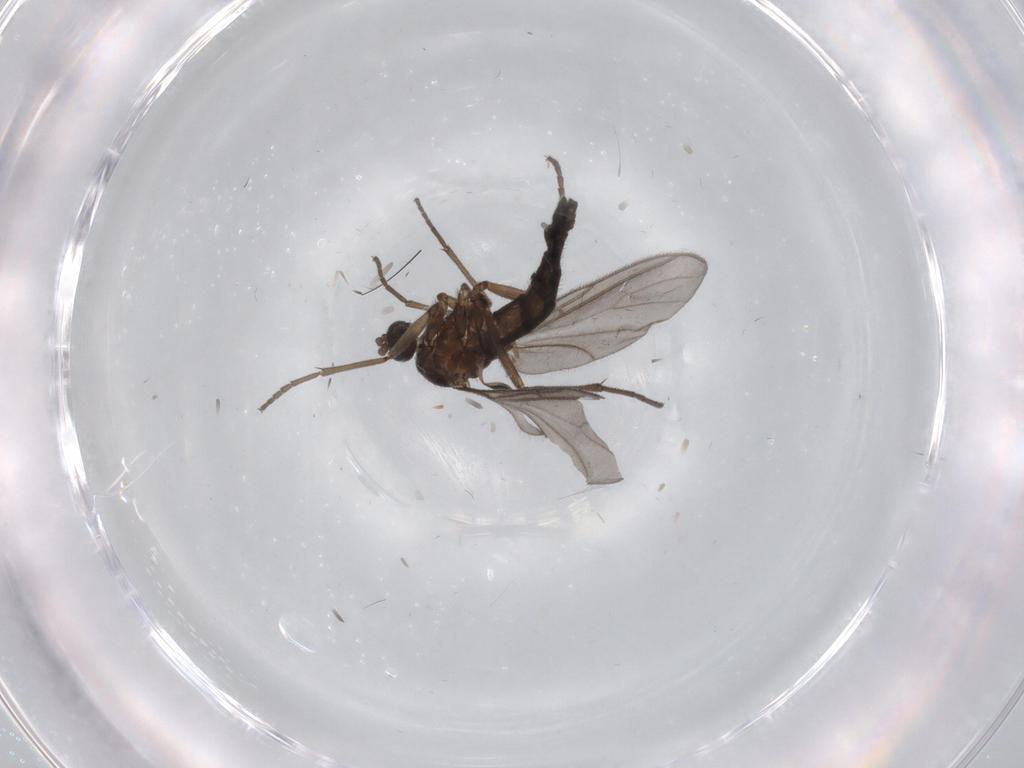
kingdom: Animalia
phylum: Arthropoda
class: Insecta
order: Diptera
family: Sciaridae
